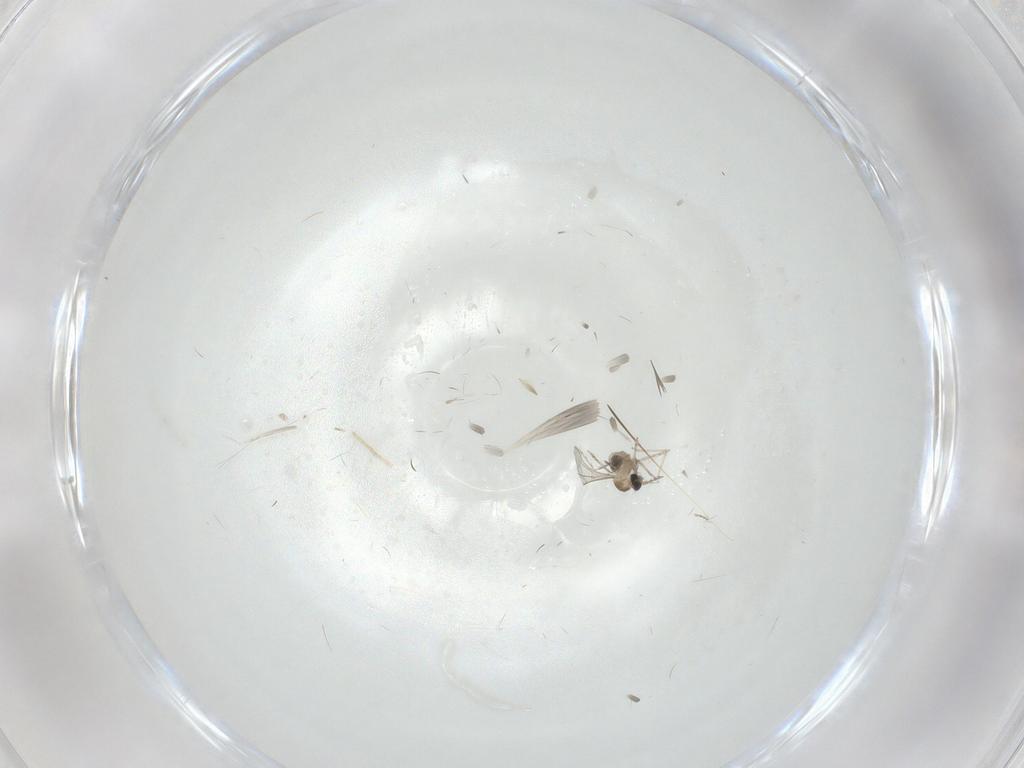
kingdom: Animalia
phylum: Arthropoda
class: Insecta
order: Diptera
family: Cecidomyiidae
